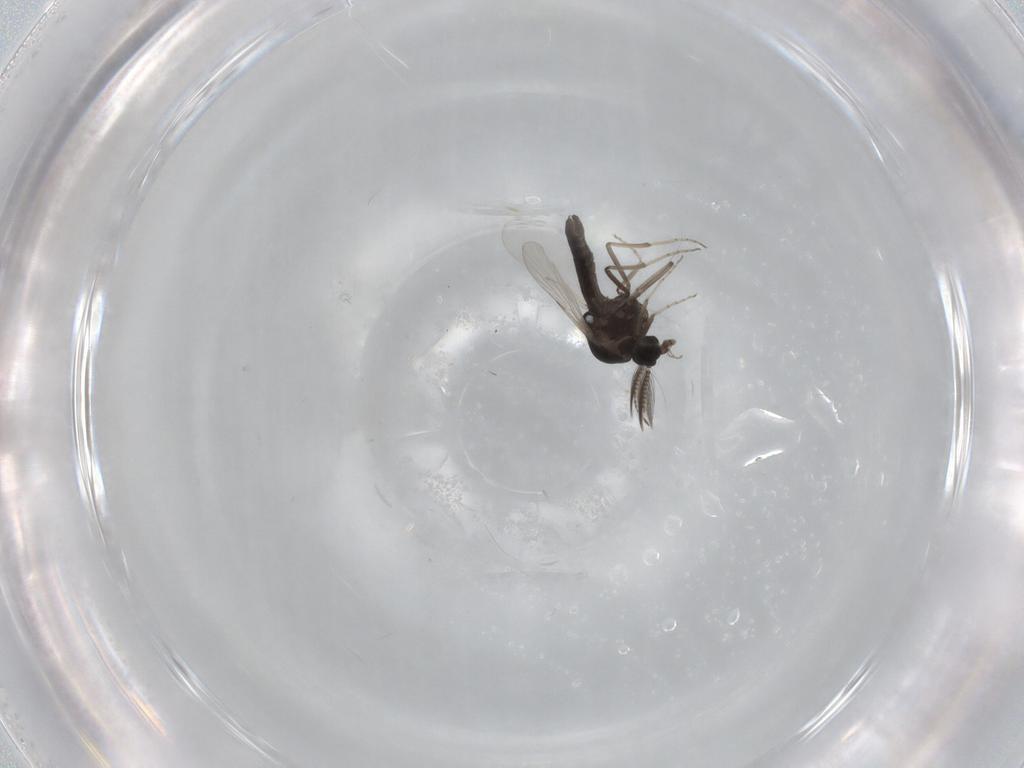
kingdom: Animalia
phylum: Arthropoda
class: Insecta
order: Diptera
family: Ceratopogonidae
